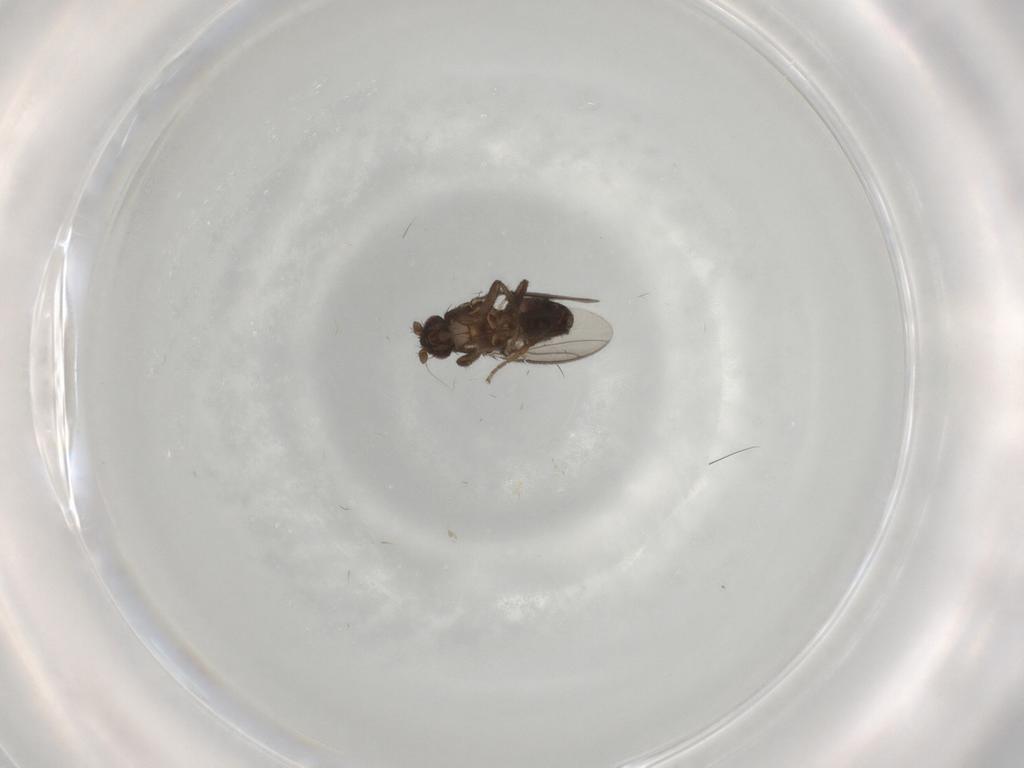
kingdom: Animalia
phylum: Arthropoda
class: Insecta
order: Diptera
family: Sphaeroceridae
